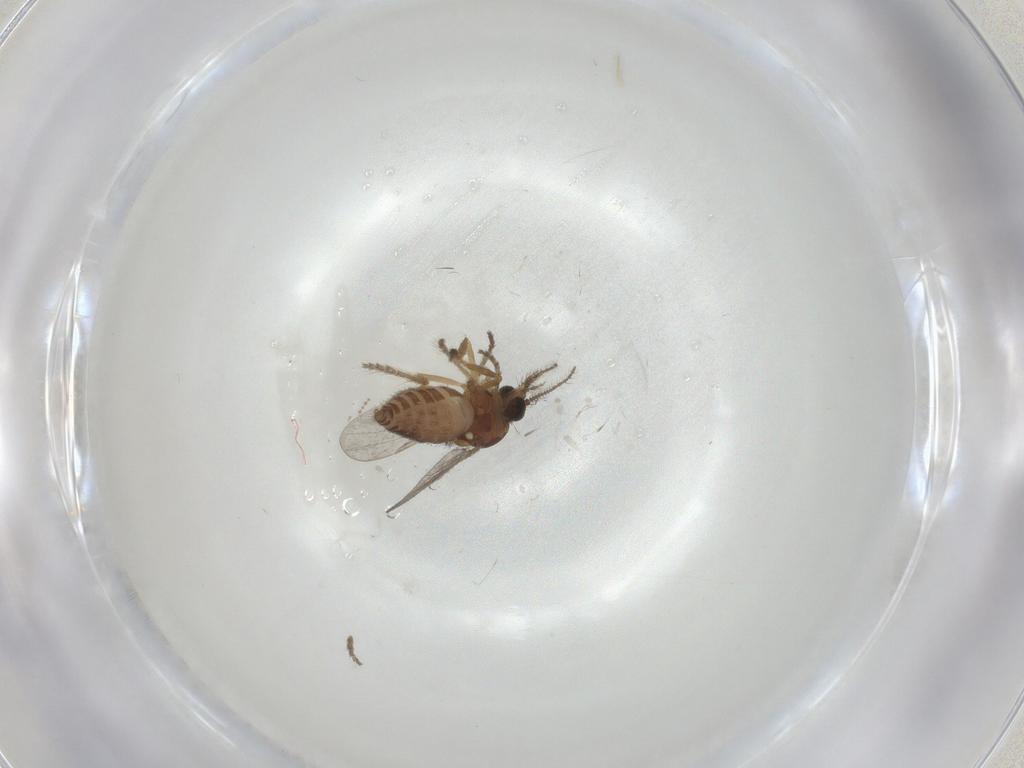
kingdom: Animalia
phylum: Arthropoda
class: Insecta
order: Diptera
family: Ceratopogonidae
